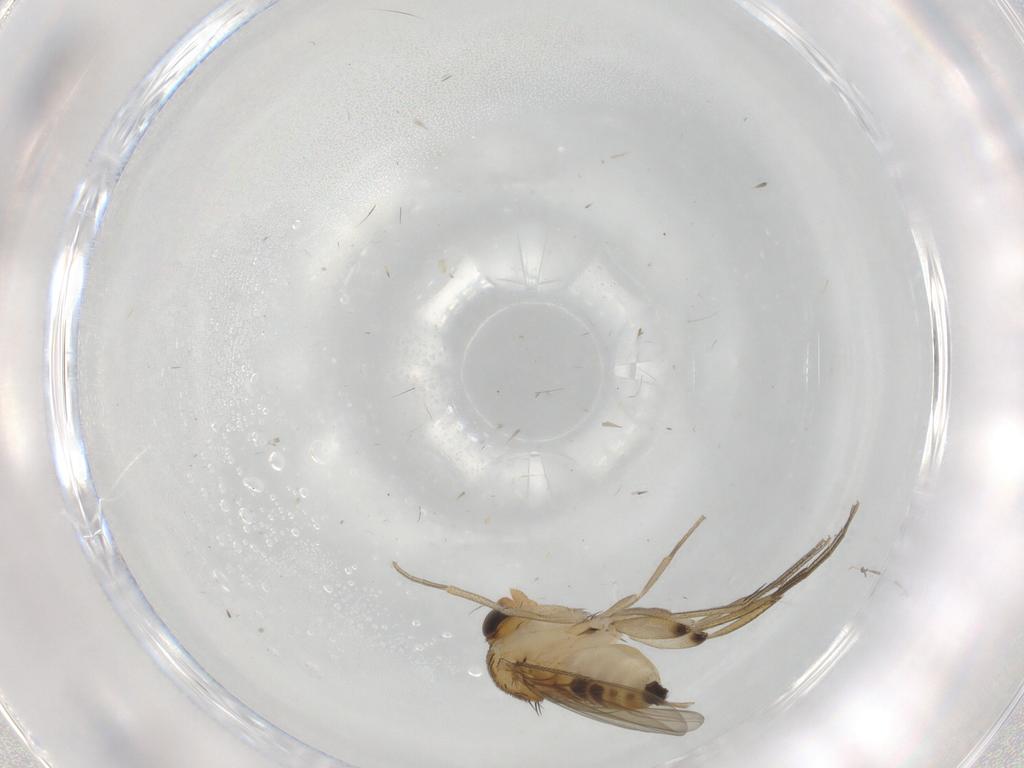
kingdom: Animalia
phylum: Arthropoda
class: Insecta
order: Diptera
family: Phoridae
